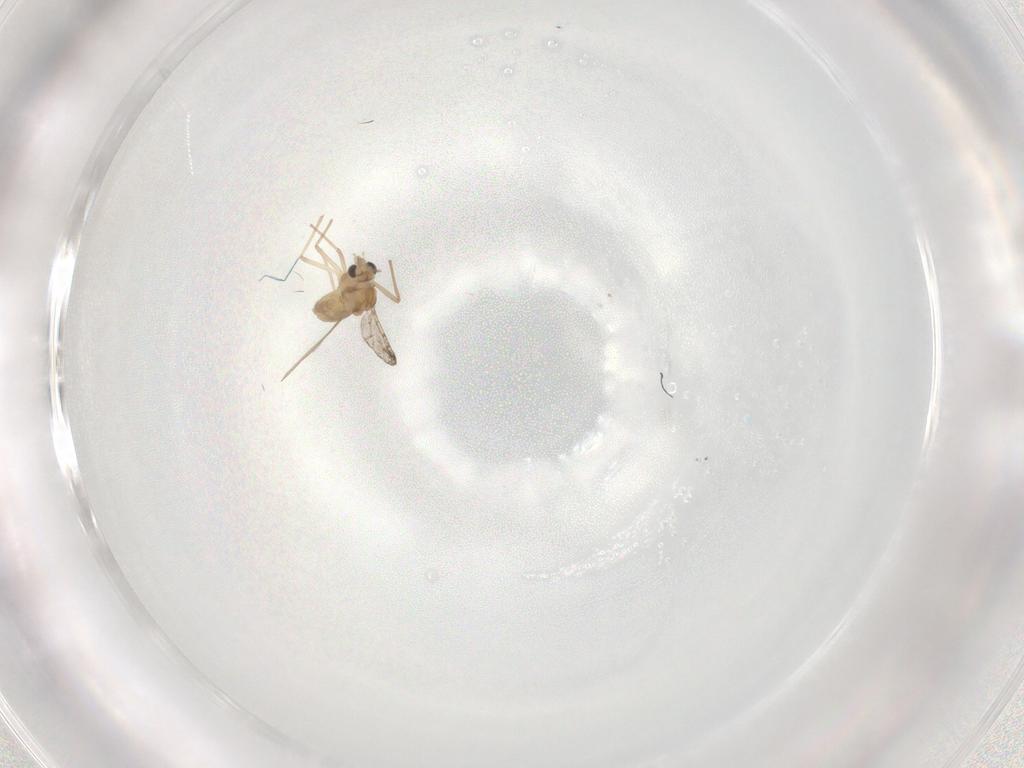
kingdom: Animalia
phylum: Arthropoda
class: Insecta
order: Diptera
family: Chironomidae
